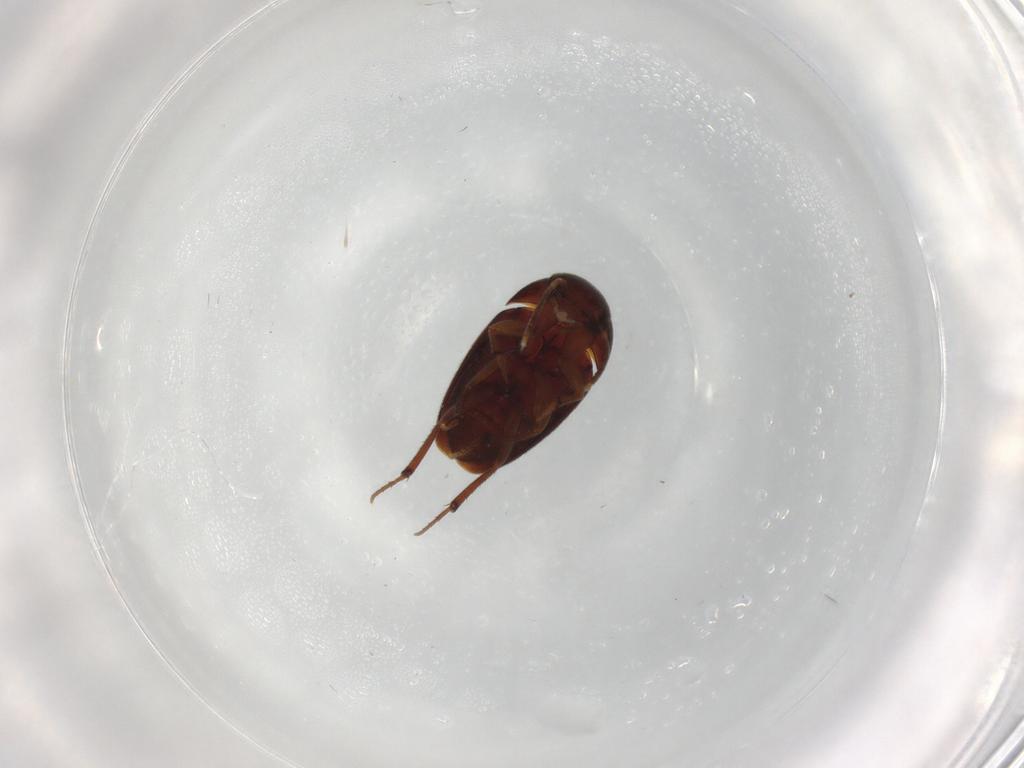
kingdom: Animalia
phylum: Arthropoda
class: Insecta
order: Coleoptera
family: Leiodidae
